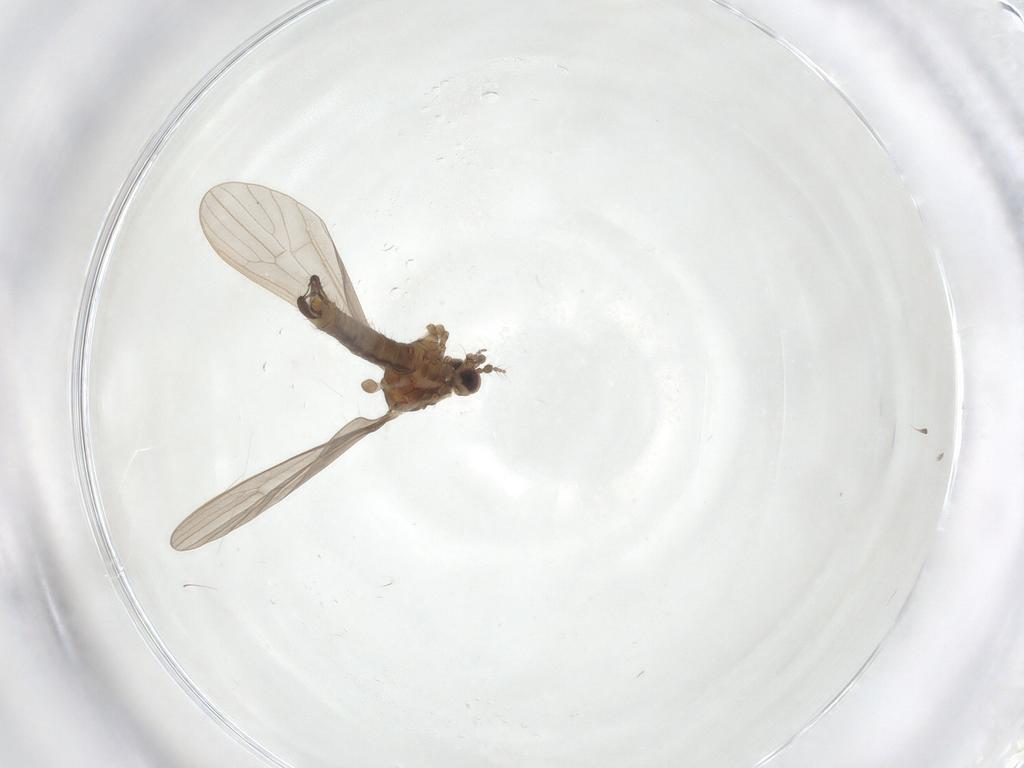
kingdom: Animalia
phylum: Arthropoda
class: Insecta
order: Diptera
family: Limoniidae
